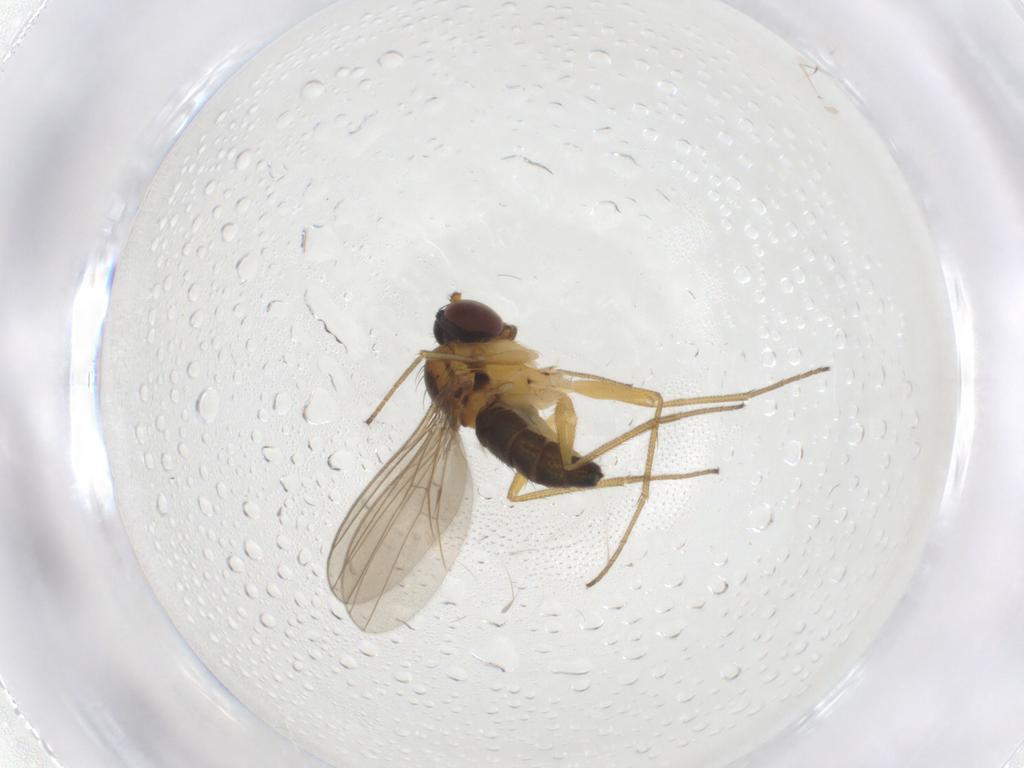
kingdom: Animalia
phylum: Arthropoda
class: Insecta
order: Diptera
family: Dolichopodidae
